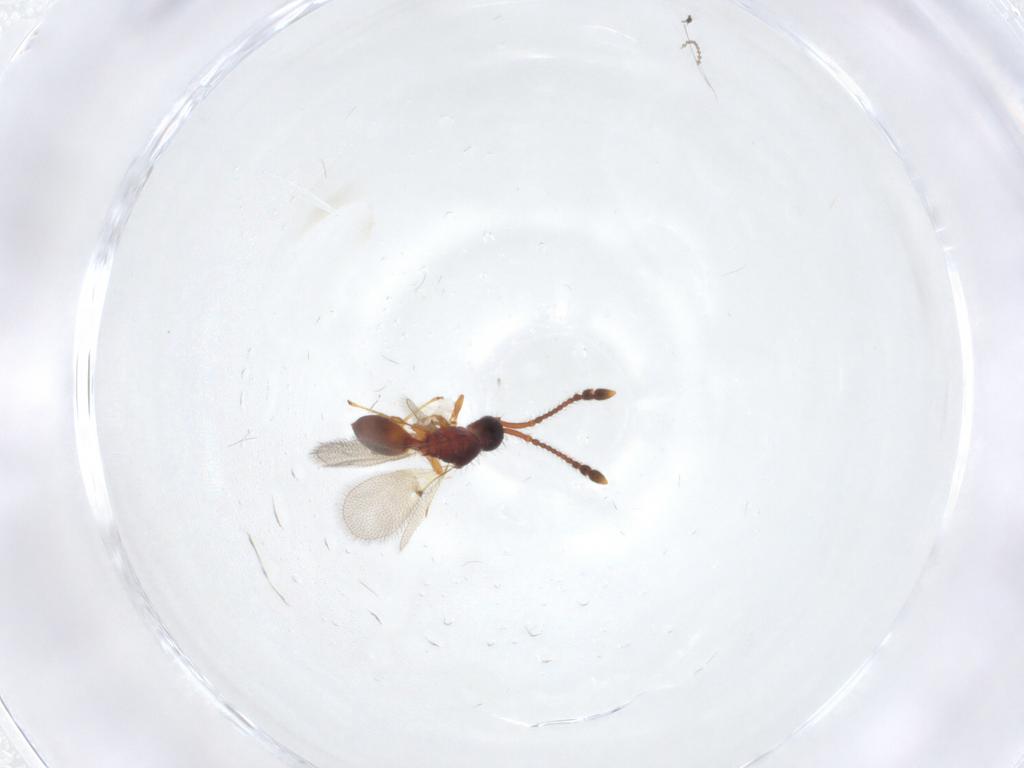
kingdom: Animalia
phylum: Arthropoda
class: Insecta
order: Hymenoptera
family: Diapriidae
